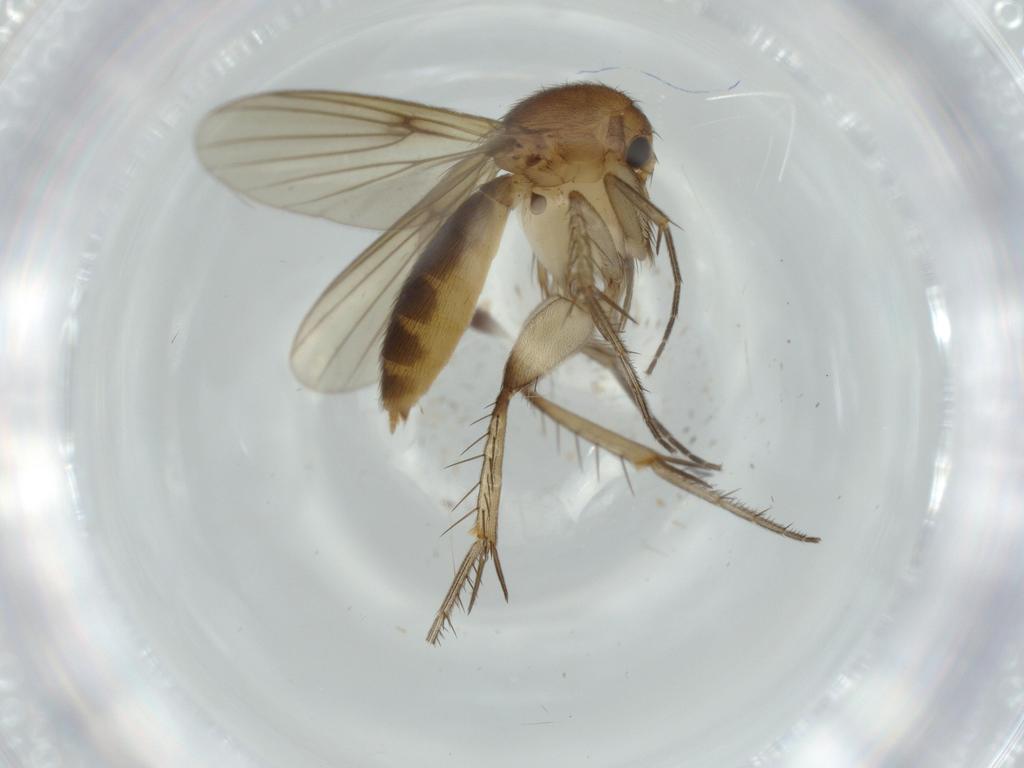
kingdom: Animalia
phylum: Arthropoda
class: Insecta
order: Diptera
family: Sciaridae
